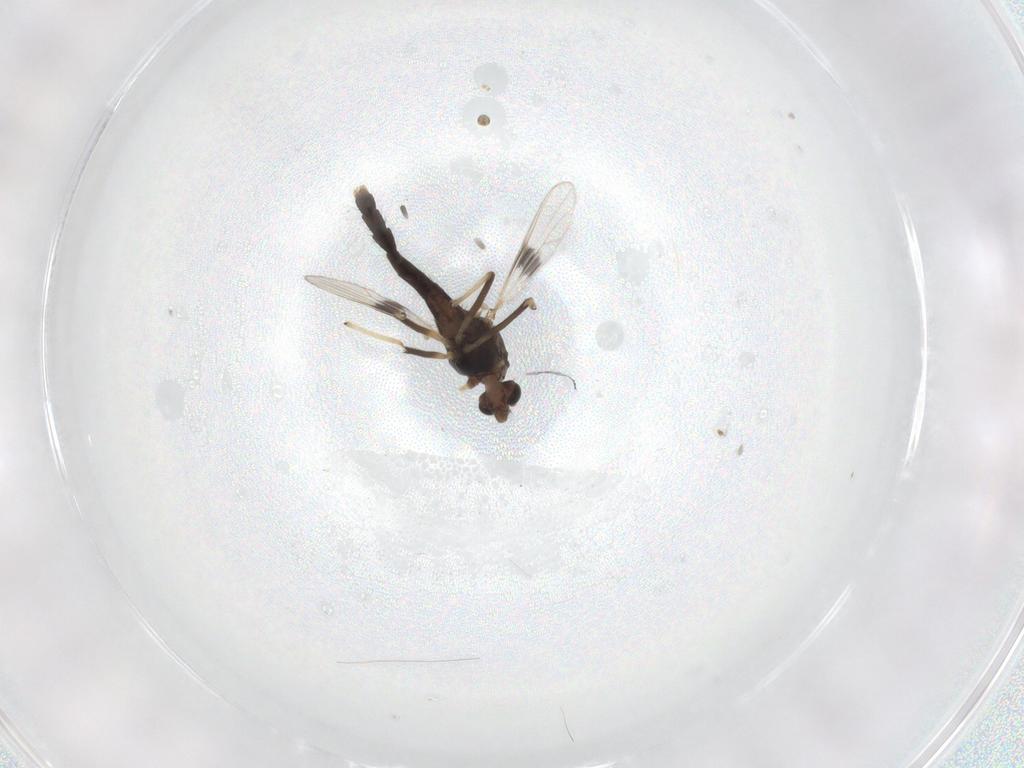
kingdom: Animalia
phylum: Arthropoda
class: Insecta
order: Diptera
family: Chironomidae
